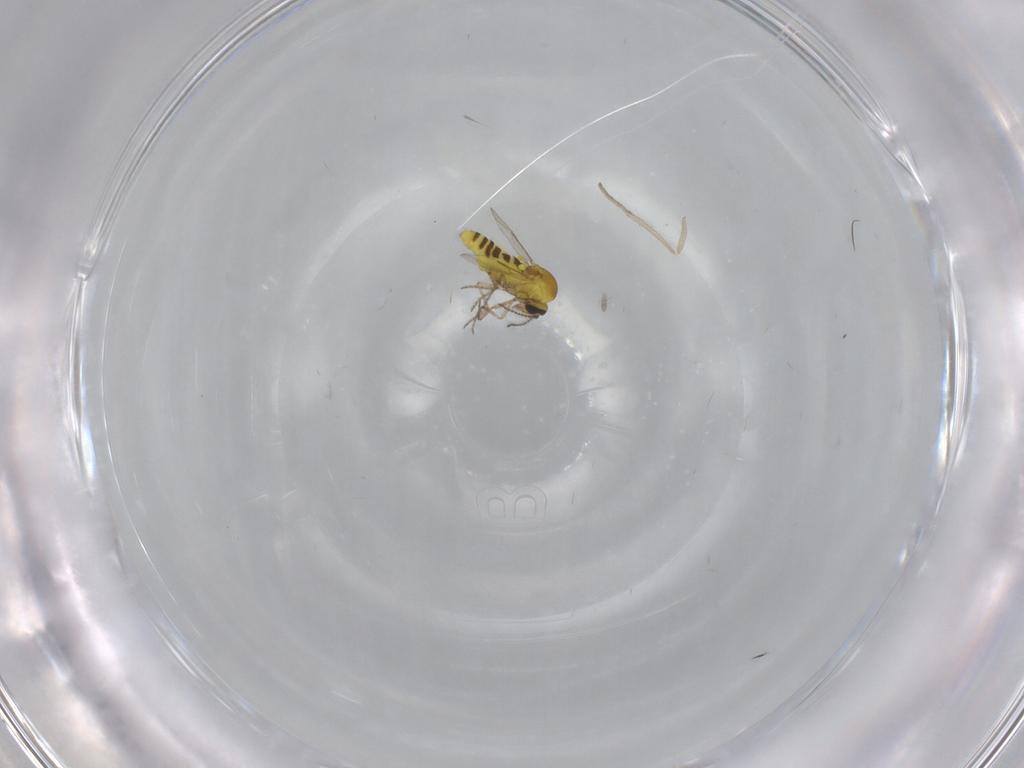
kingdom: Animalia
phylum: Arthropoda
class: Insecta
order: Diptera
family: Ceratopogonidae
